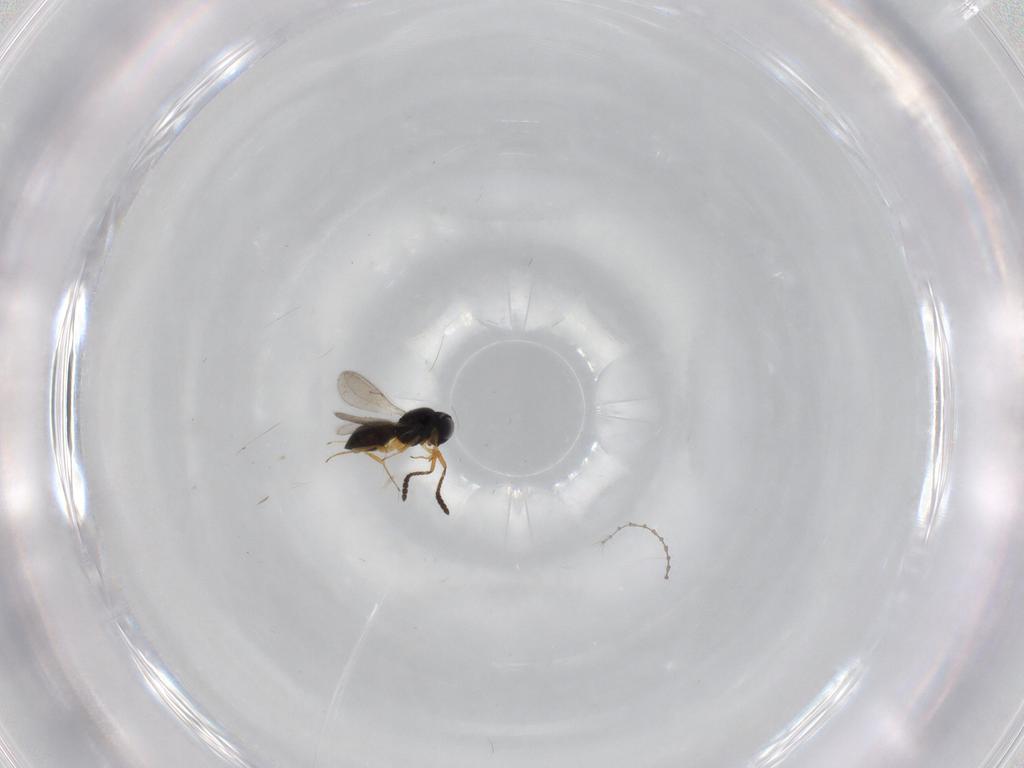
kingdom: Animalia
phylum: Arthropoda
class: Insecta
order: Hymenoptera
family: Scelionidae
